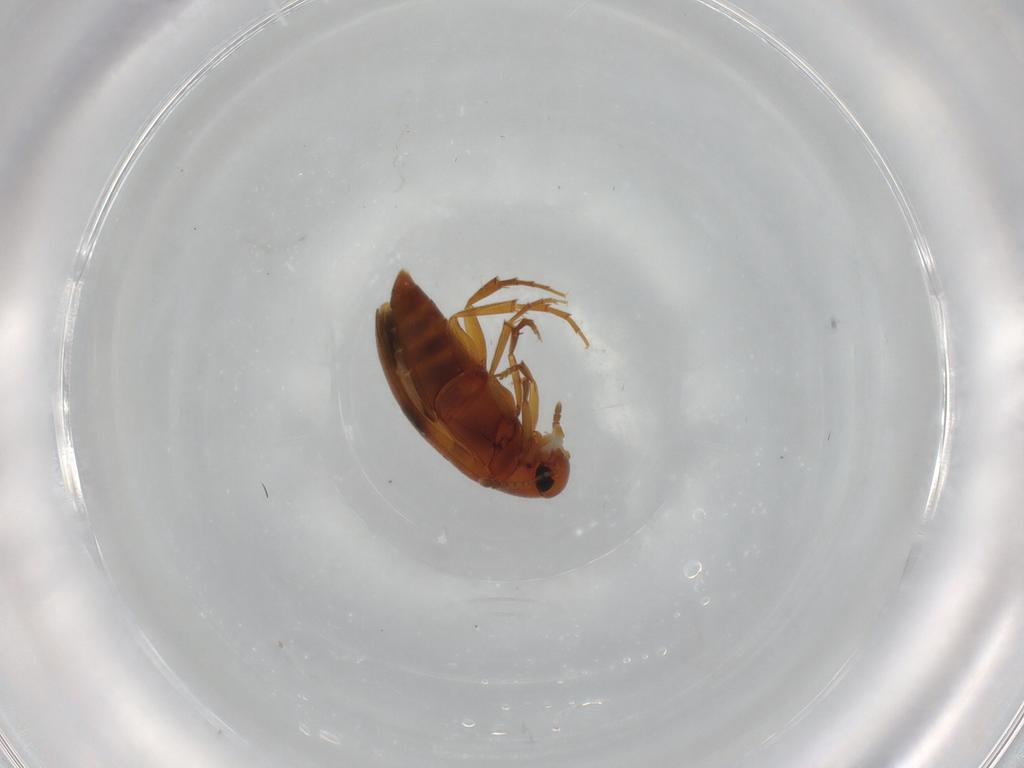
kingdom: Animalia
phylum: Arthropoda
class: Insecta
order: Coleoptera
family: Scraptiidae
